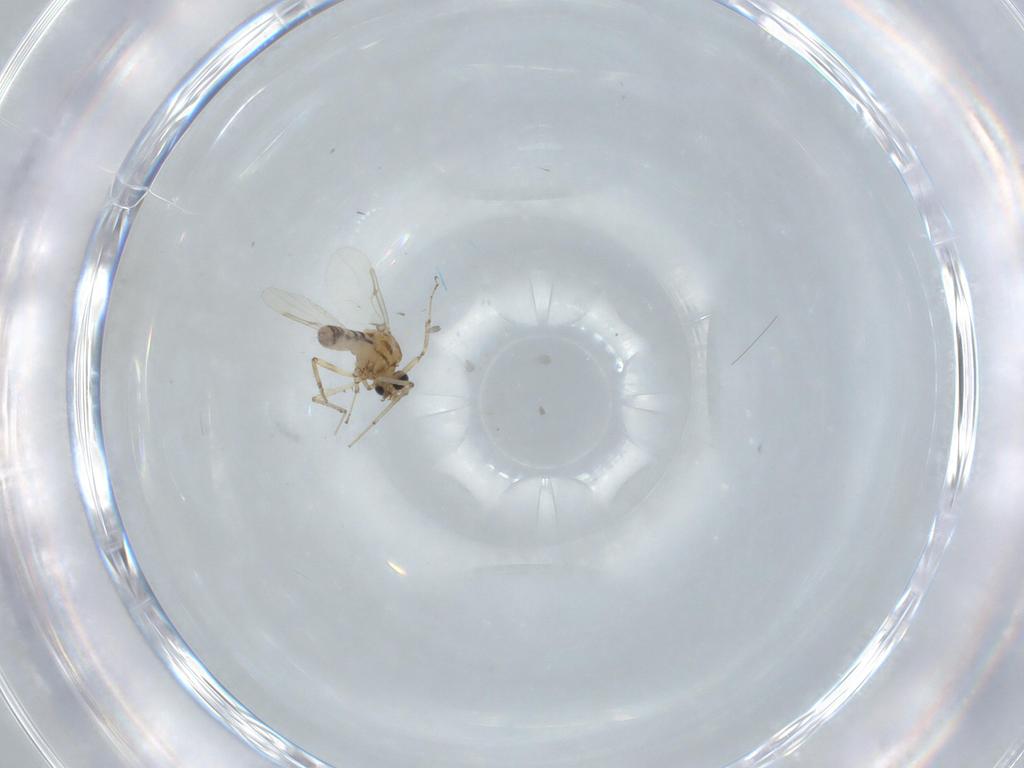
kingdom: Animalia
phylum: Arthropoda
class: Insecta
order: Diptera
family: Ceratopogonidae
